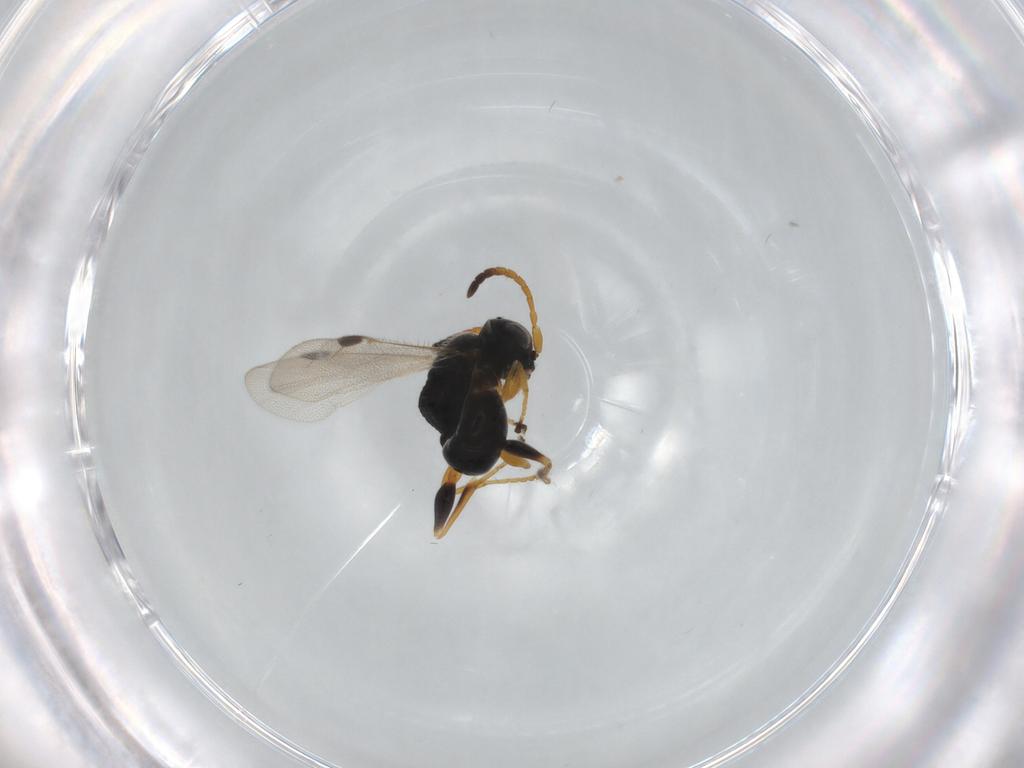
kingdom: Animalia
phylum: Arthropoda
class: Insecta
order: Hymenoptera
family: Dryinidae
